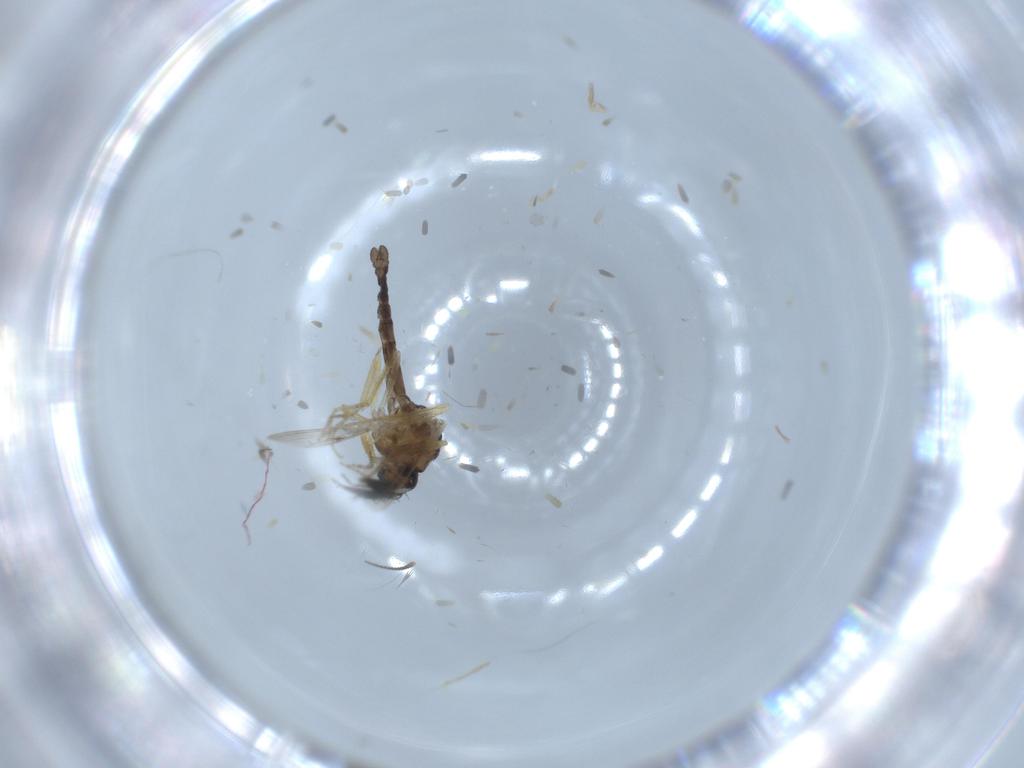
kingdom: Animalia
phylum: Arthropoda
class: Insecta
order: Diptera
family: Ceratopogonidae
